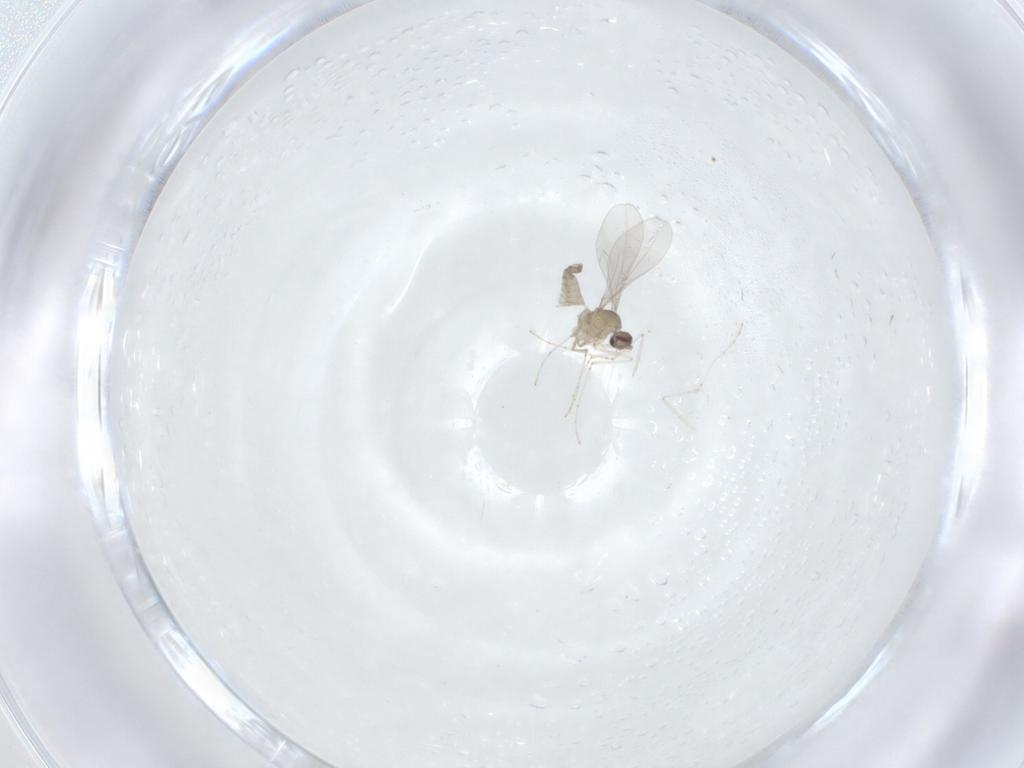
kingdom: Animalia
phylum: Arthropoda
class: Insecta
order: Diptera
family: Cecidomyiidae
